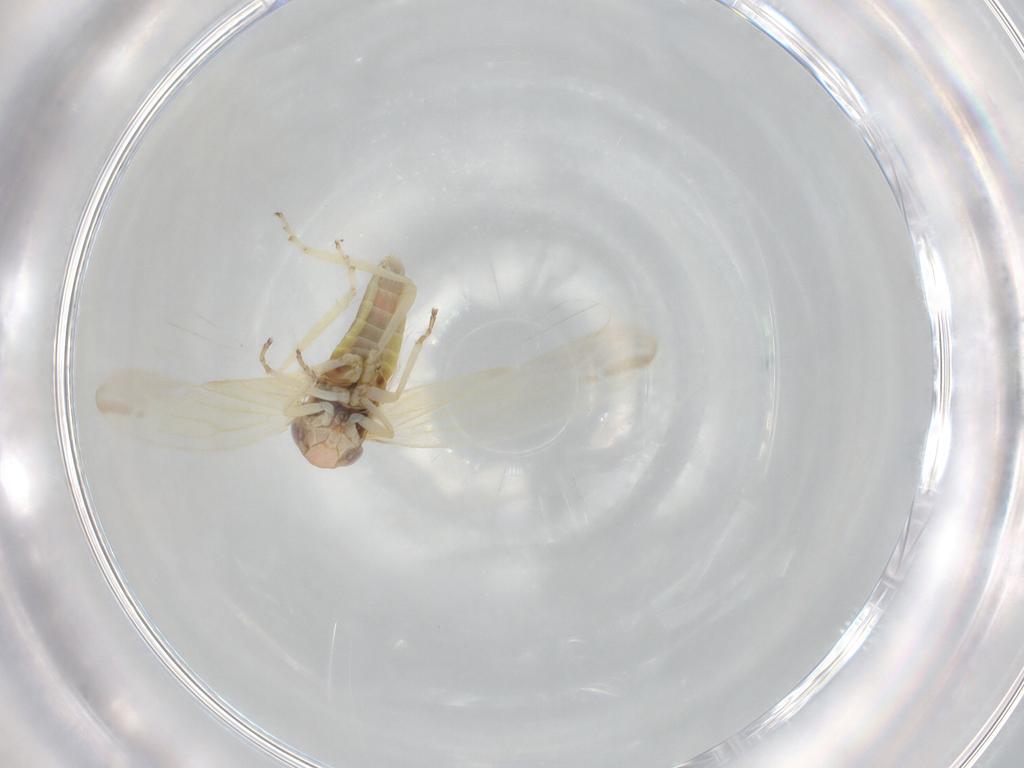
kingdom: Animalia
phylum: Arthropoda
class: Insecta
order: Hemiptera
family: Cicadellidae
